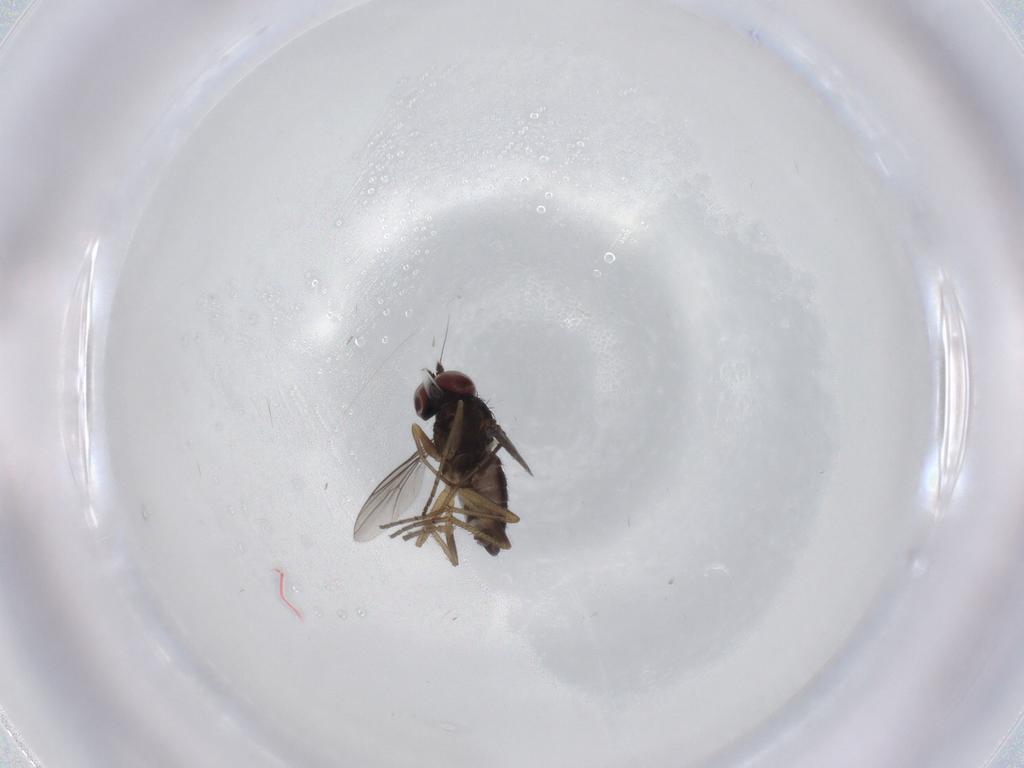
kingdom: Animalia
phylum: Arthropoda
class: Insecta
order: Diptera
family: Dolichopodidae
